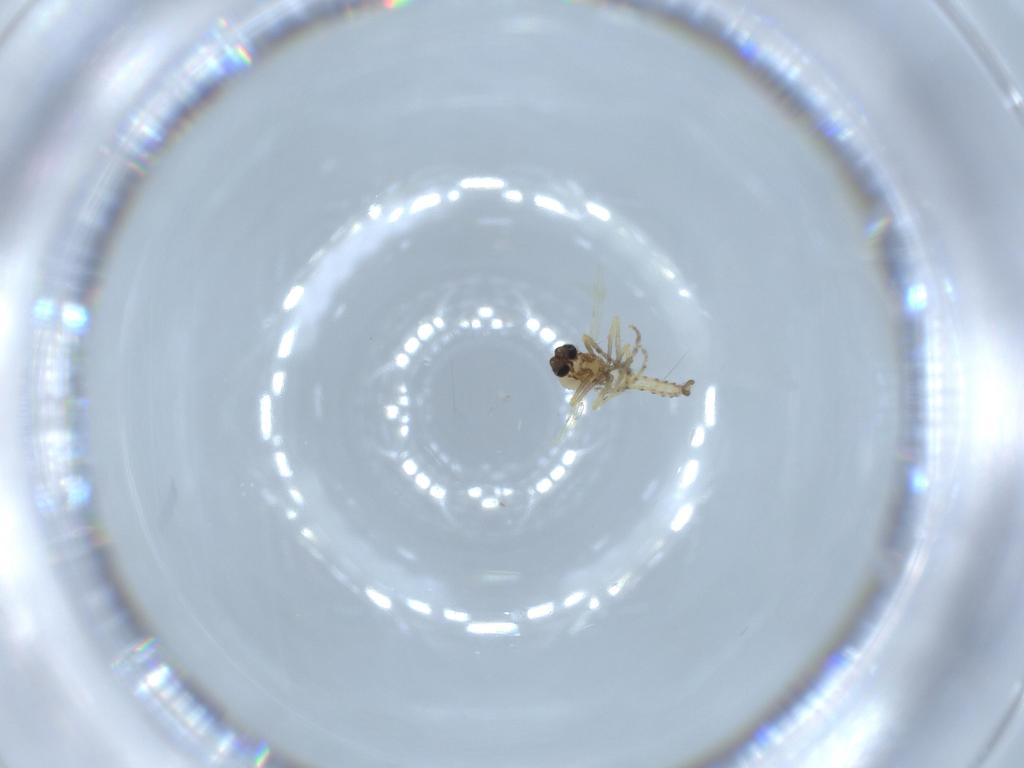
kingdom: Animalia
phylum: Arthropoda
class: Insecta
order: Diptera
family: Ceratopogonidae
